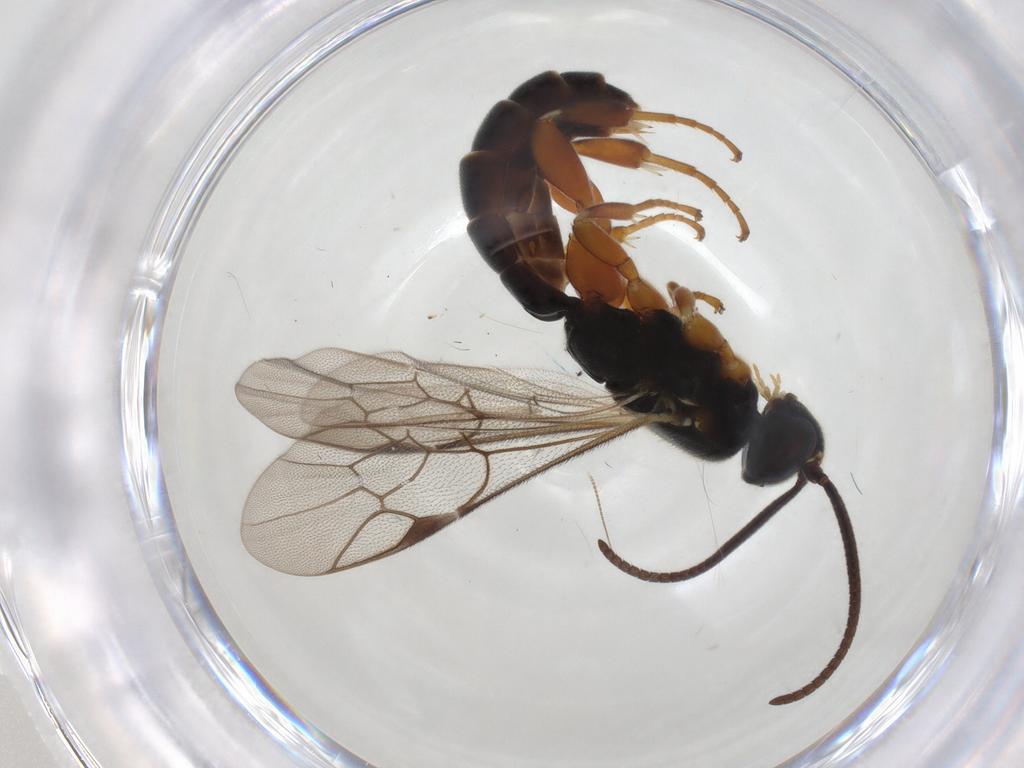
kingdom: Animalia
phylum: Arthropoda
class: Insecta
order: Hymenoptera
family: Ichneumonidae
